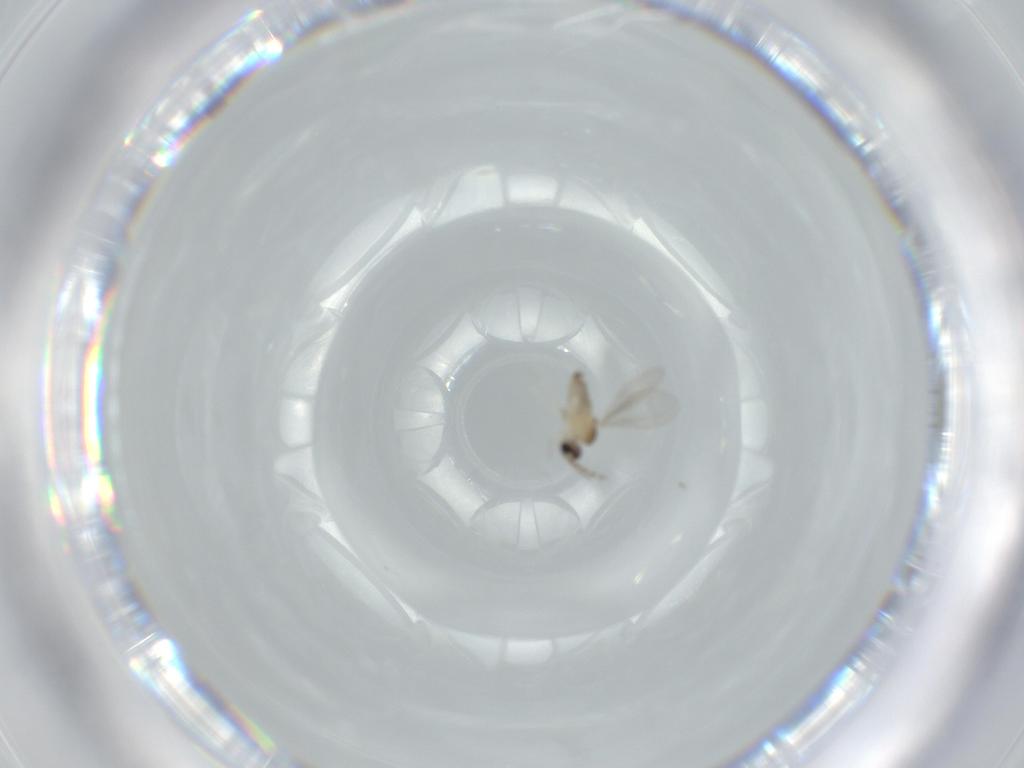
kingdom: Animalia
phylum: Arthropoda
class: Insecta
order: Diptera
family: Cecidomyiidae
